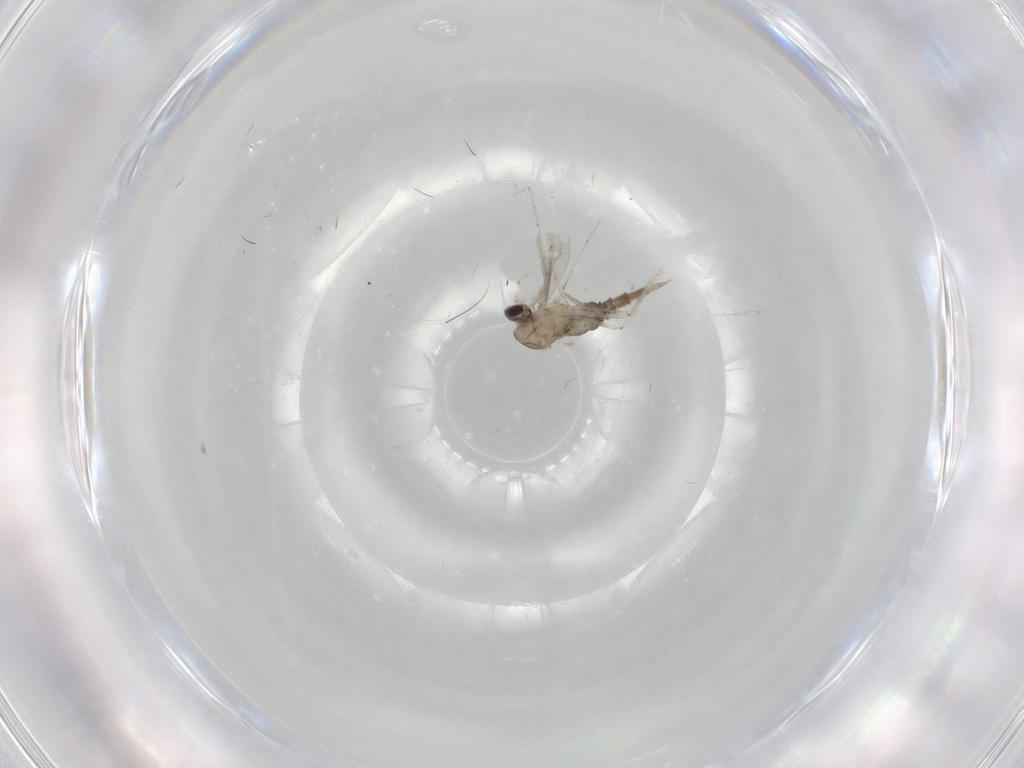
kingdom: Animalia
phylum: Arthropoda
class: Insecta
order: Diptera
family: Cecidomyiidae
